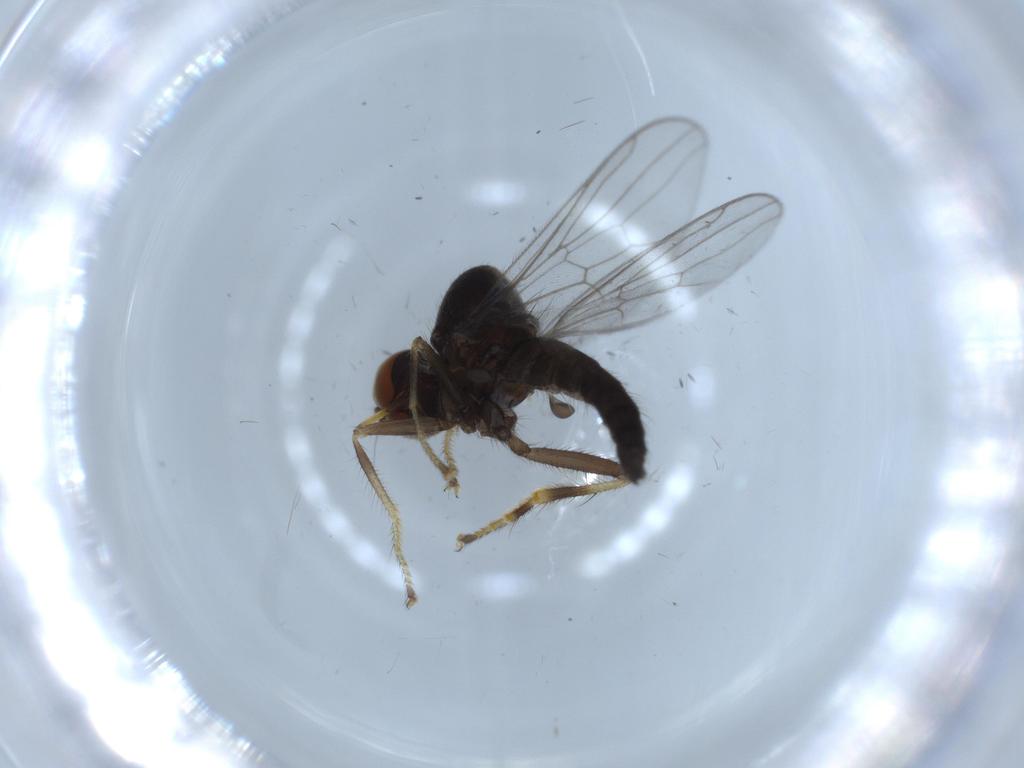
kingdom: Animalia
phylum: Arthropoda
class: Insecta
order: Diptera
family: Hybotidae
